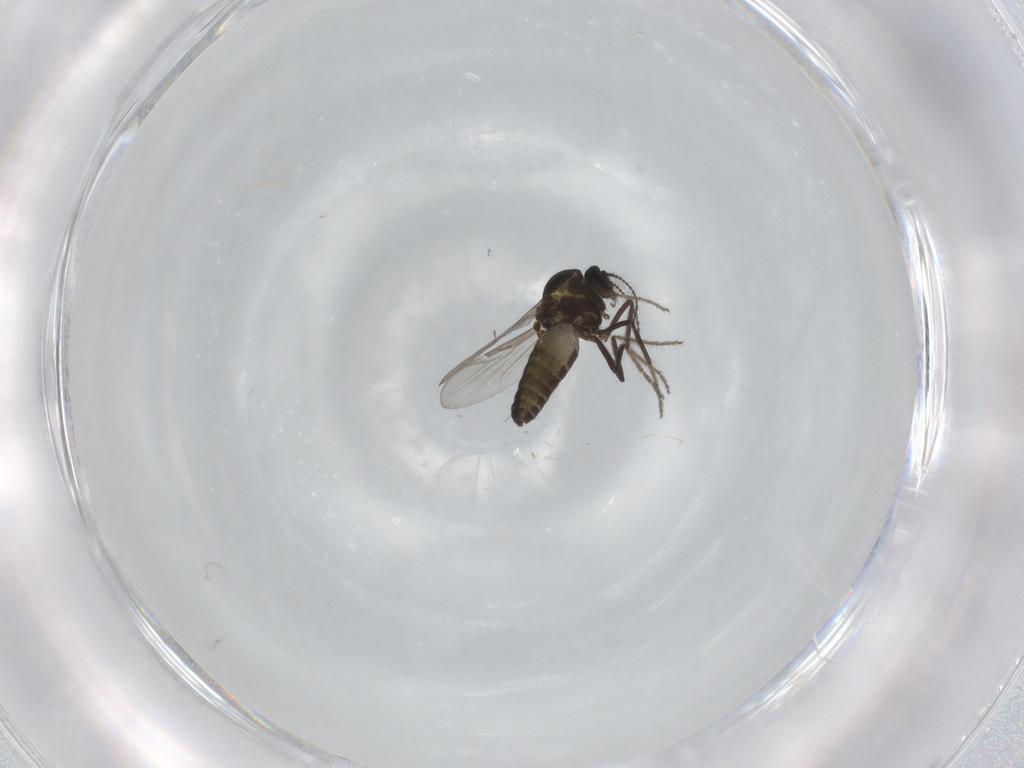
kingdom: Animalia
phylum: Arthropoda
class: Insecta
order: Diptera
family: Ceratopogonidae
